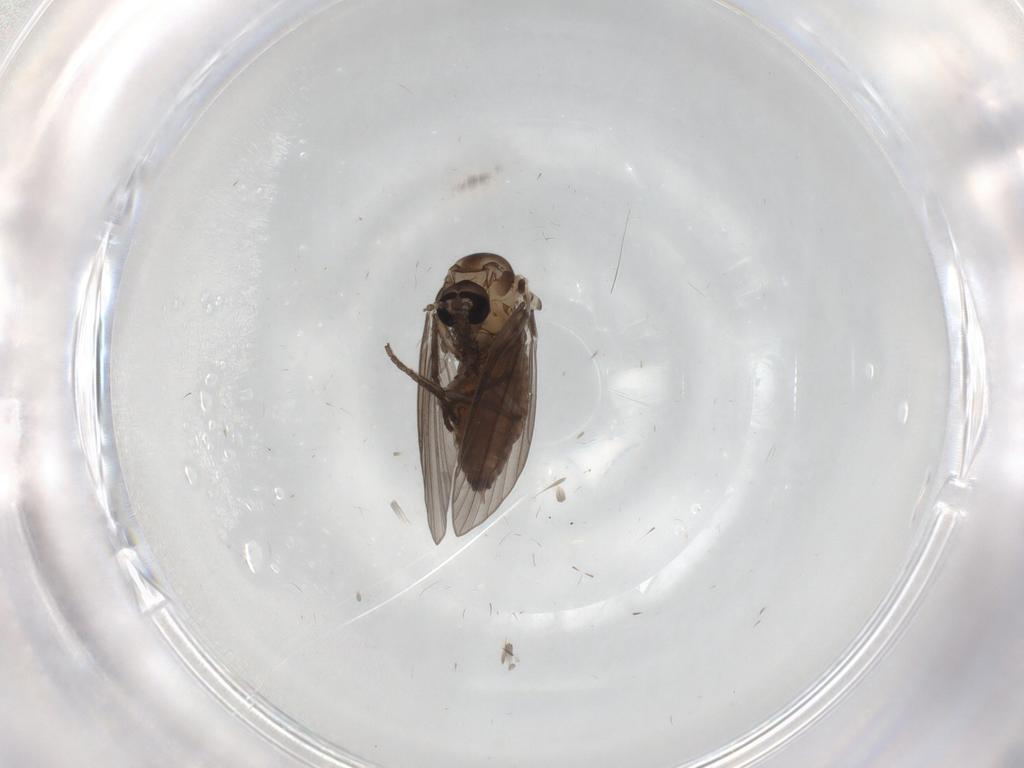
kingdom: Animalia
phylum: Arthropoda
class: Insecta
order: Diptera
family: Psychodidae
